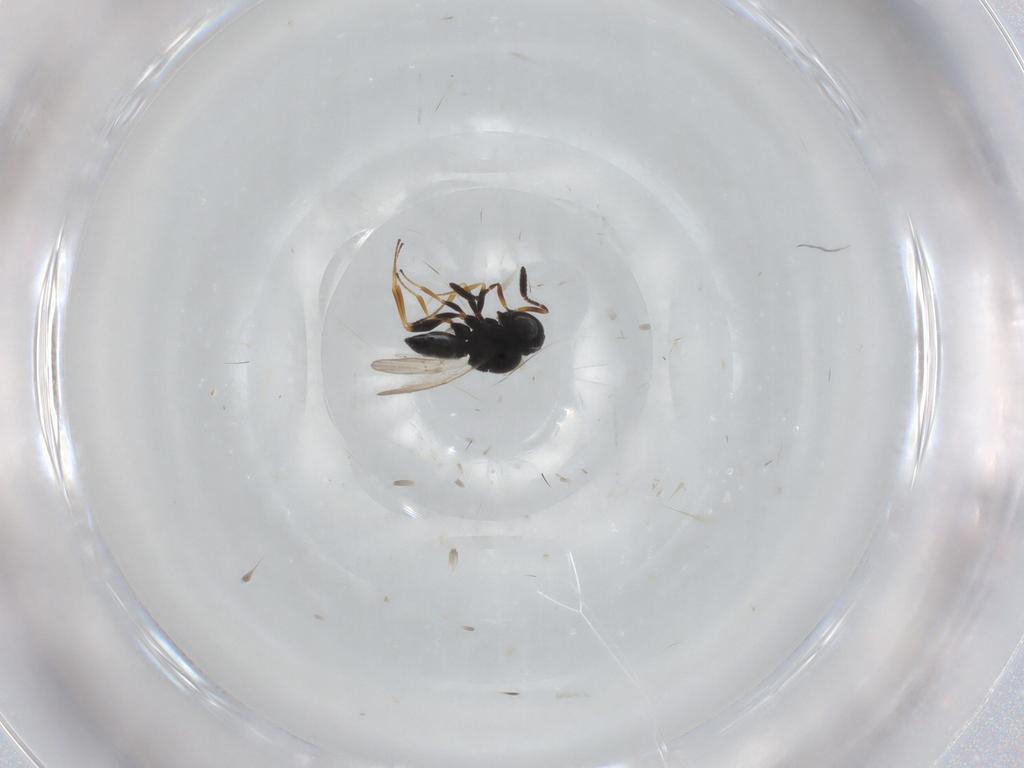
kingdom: Animalia
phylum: Arthropoda
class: Insecta
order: Coleoptera
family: Curculionidae
